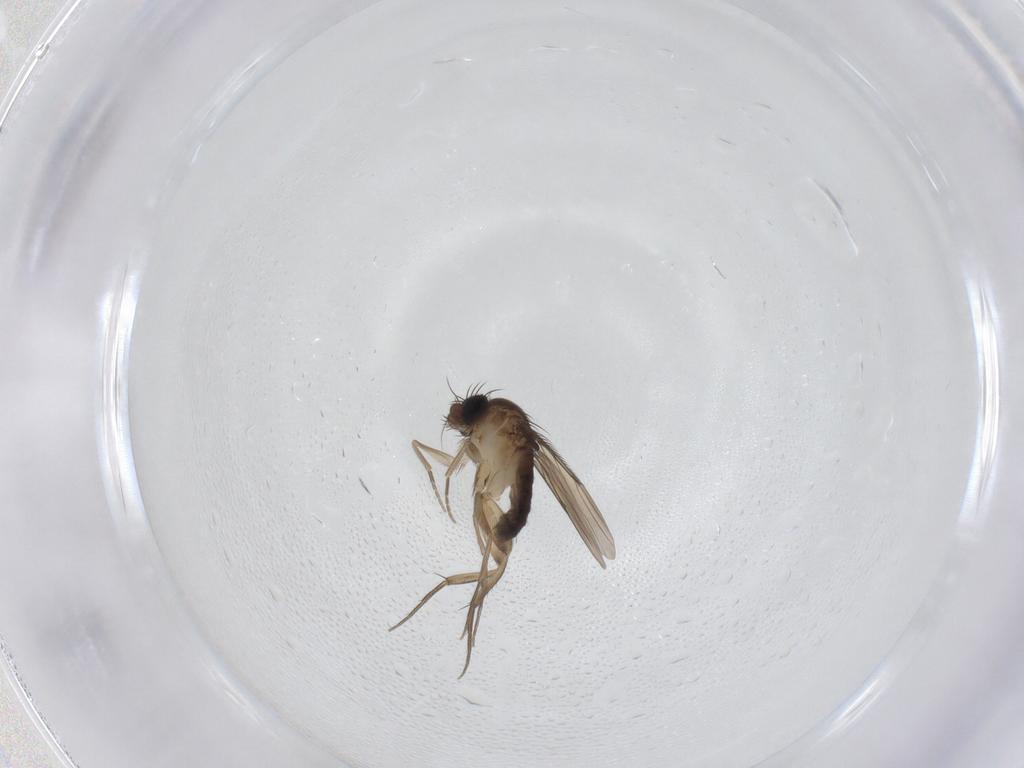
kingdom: Animalia
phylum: Arthropoda
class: Insecta
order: Diptera
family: Phoridae
